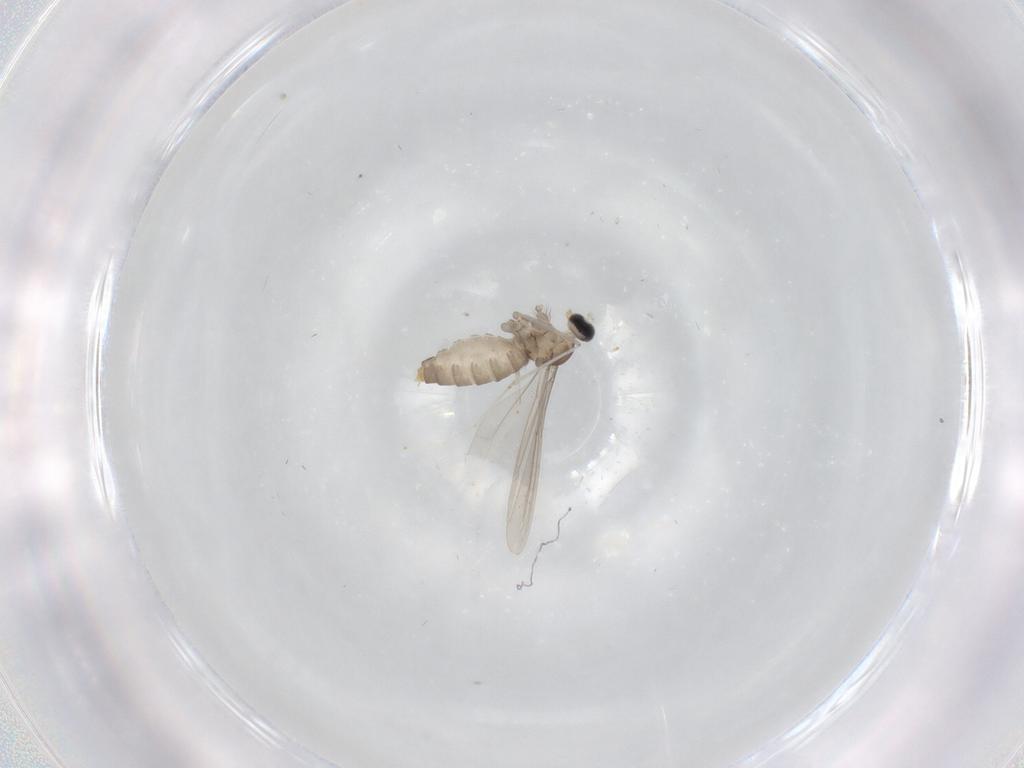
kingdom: Animalia
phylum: Arthropoda
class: Insecta
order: Diptera
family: Cecidomyiidae
